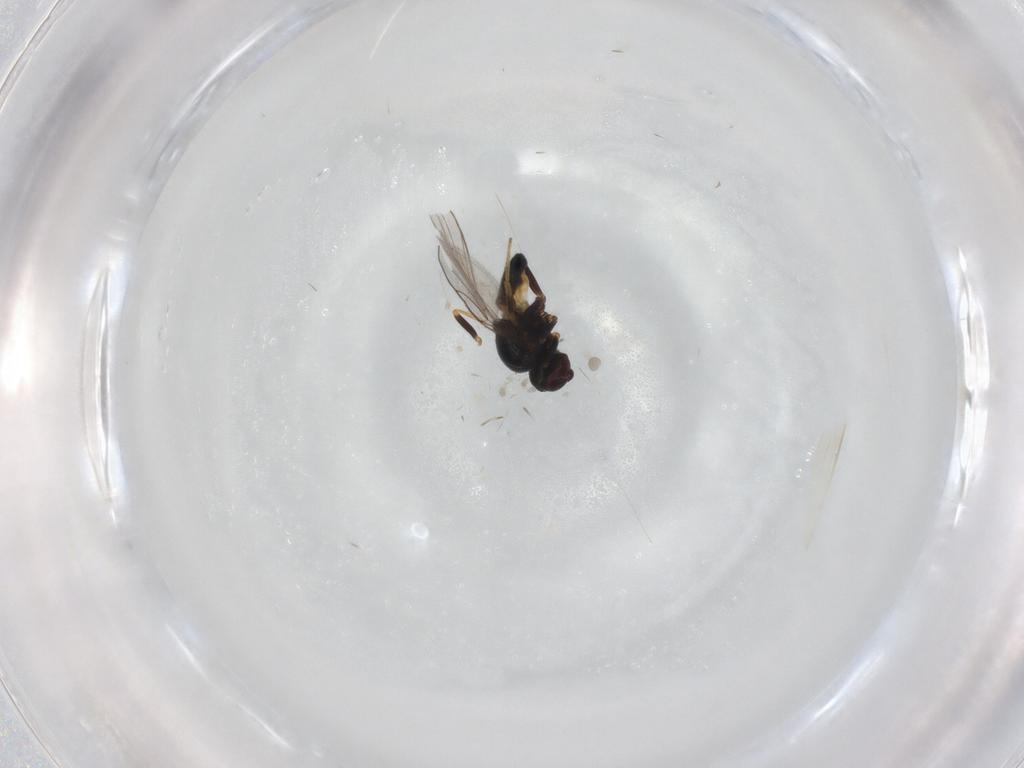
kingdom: Animalia
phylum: Arthropoda
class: Insecta
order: Diptera
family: Chloropidae
